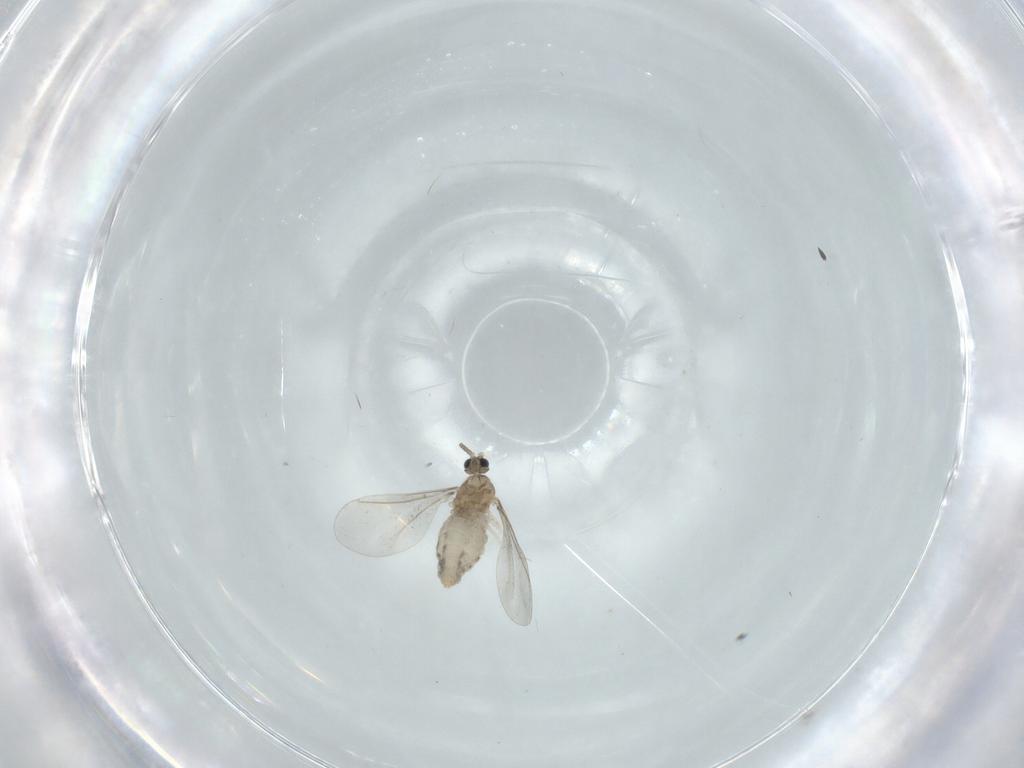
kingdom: Animalia
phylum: Arthropoda
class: Insecta
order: Diptera
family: Cecidomyiidae
